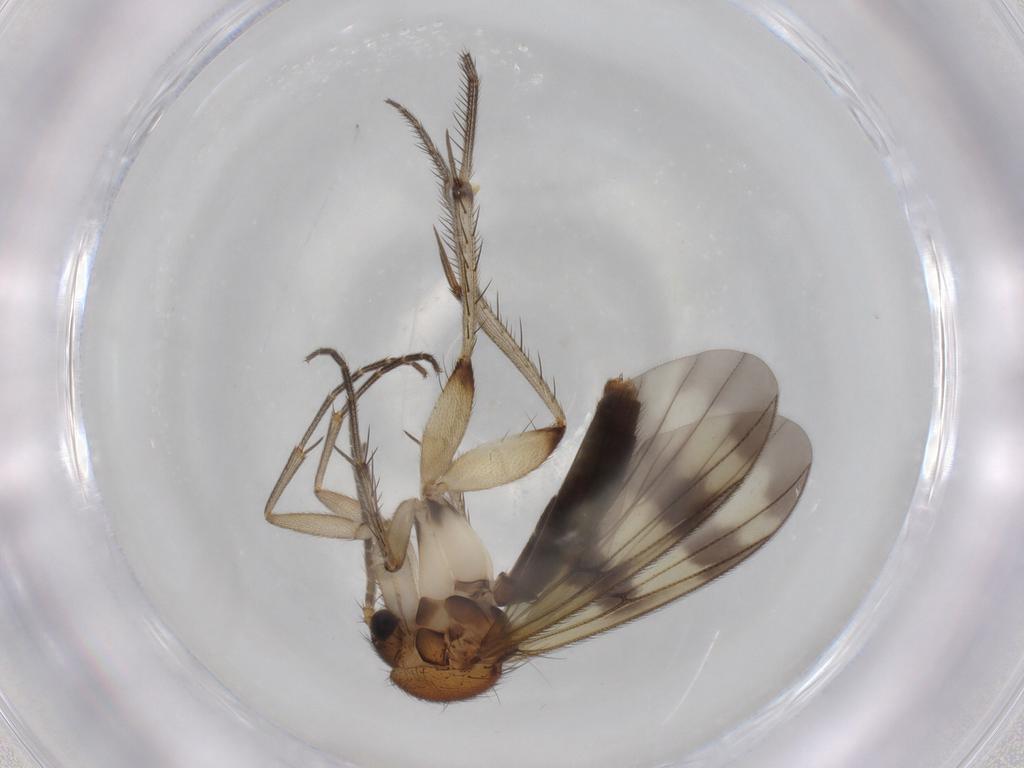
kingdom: Animalia
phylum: Arthropoda
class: Insecta
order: Diptera
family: Mycetophilidae
